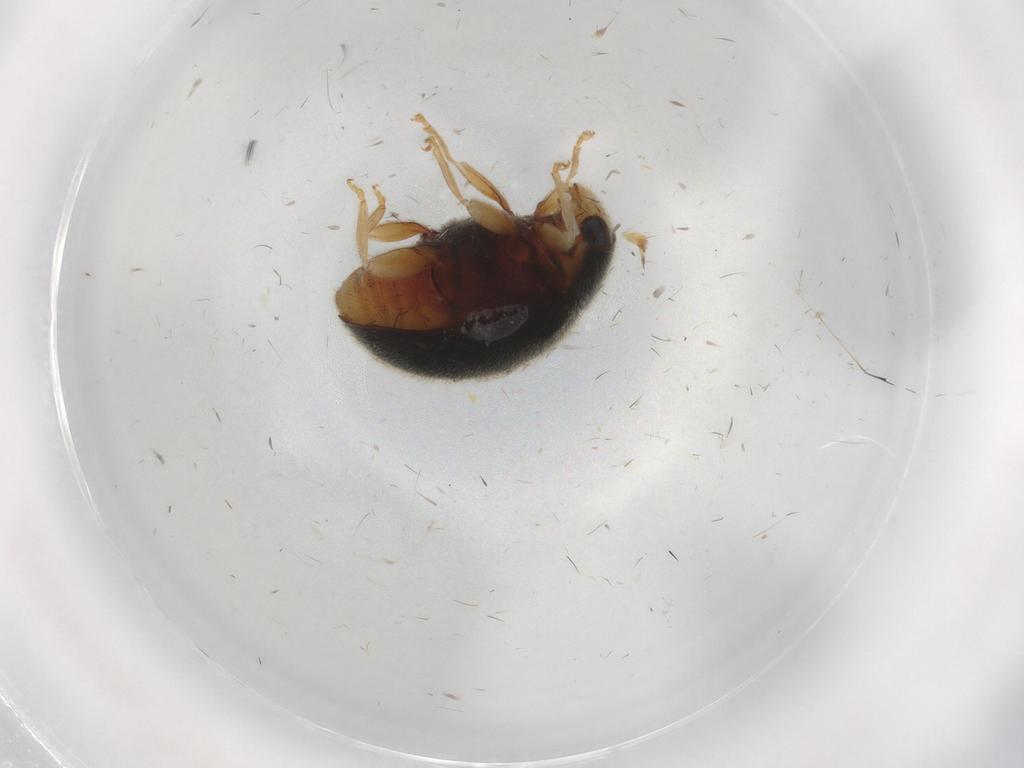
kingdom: Animalia
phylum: Arthropoda
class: Insecta
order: Coleoptera
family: Coccinellidae
